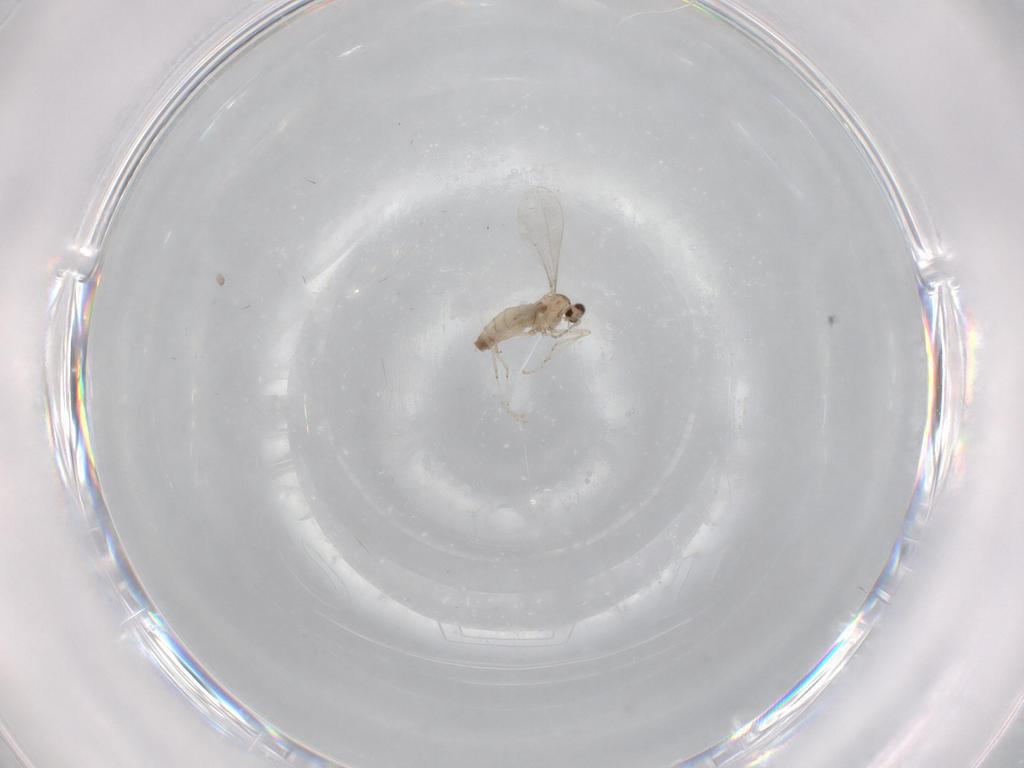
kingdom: Animalia
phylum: Arthropoda
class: Insecta
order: Diptera
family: Cecidomyiidae
